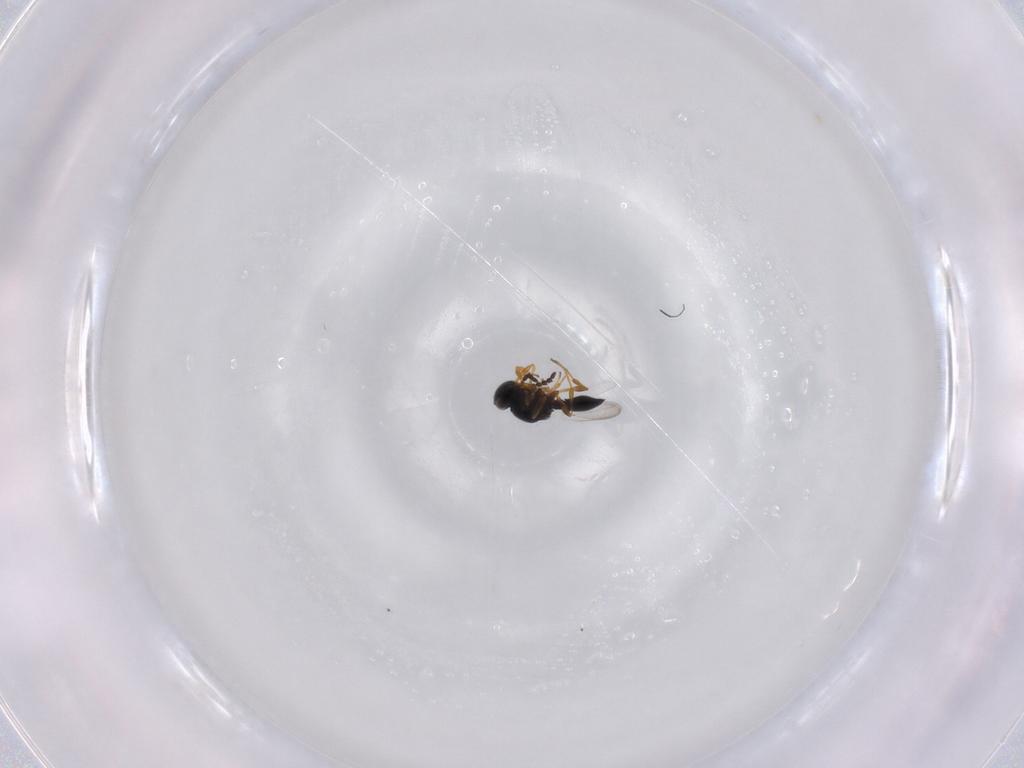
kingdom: Animalia
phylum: Arthropoda
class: Insecta
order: Hymenoptera
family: Platygastridae
